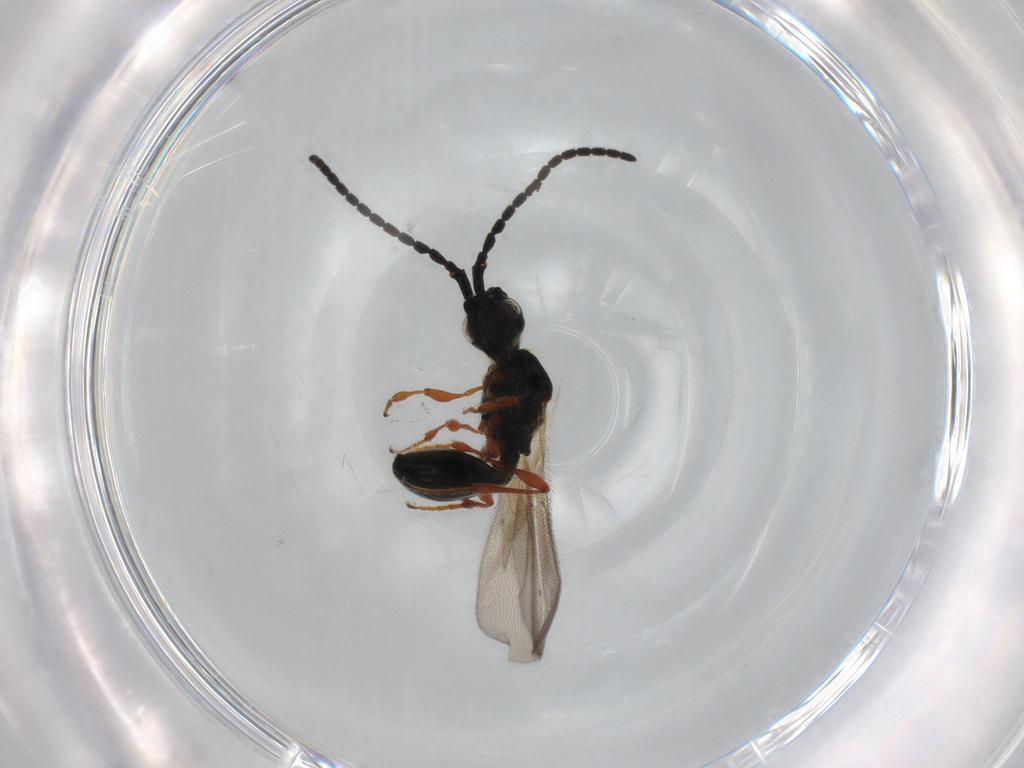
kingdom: Animalia
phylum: Arthropoda
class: Insecta
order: Hymenoptera
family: Diapriidae
